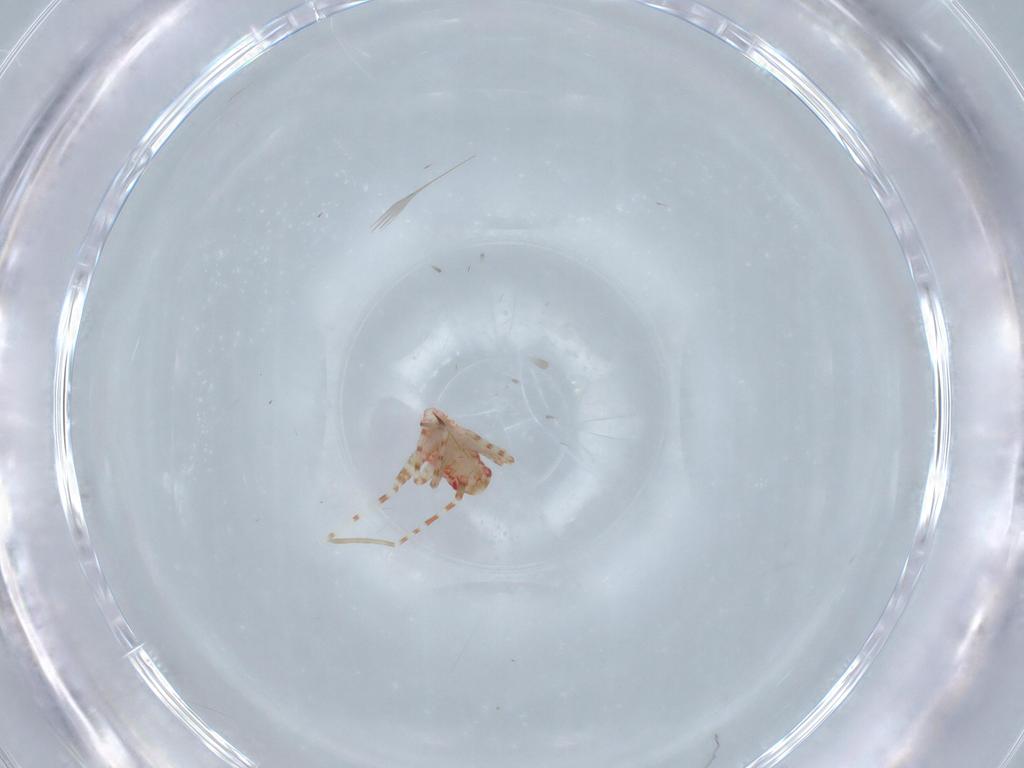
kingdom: Animalia
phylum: Arthropoda
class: Insecta
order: Hemiptera
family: Miridae
